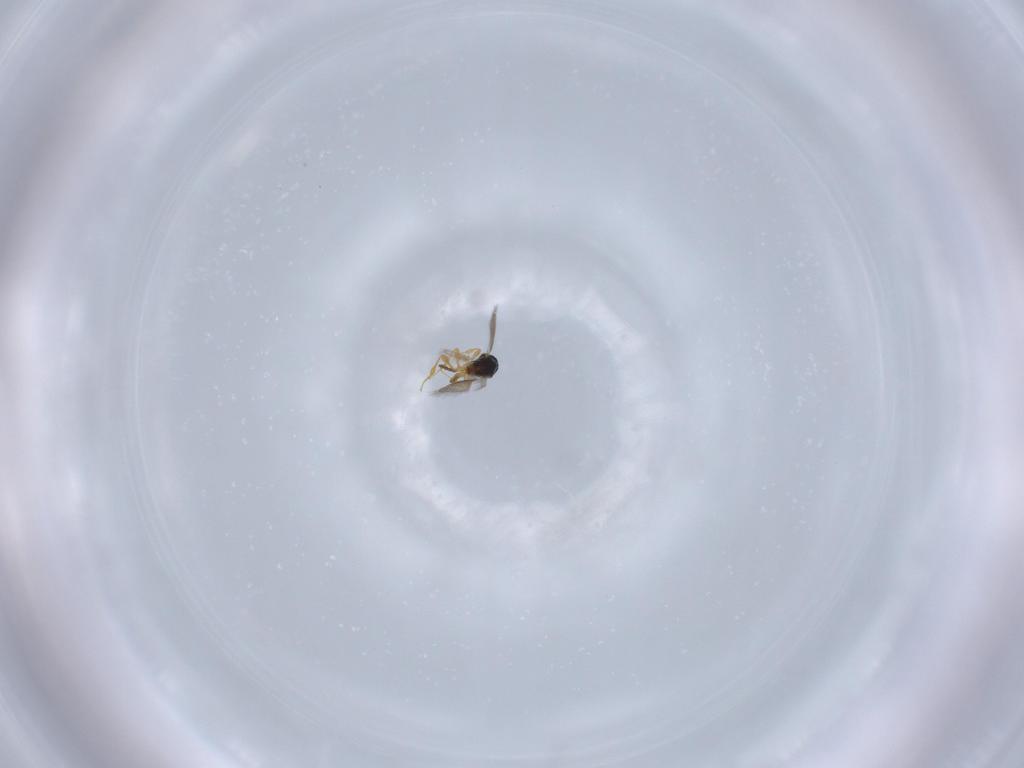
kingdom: Animalia
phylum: Arthropoda
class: Insecta
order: Hymenoptera
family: Platygastridae
